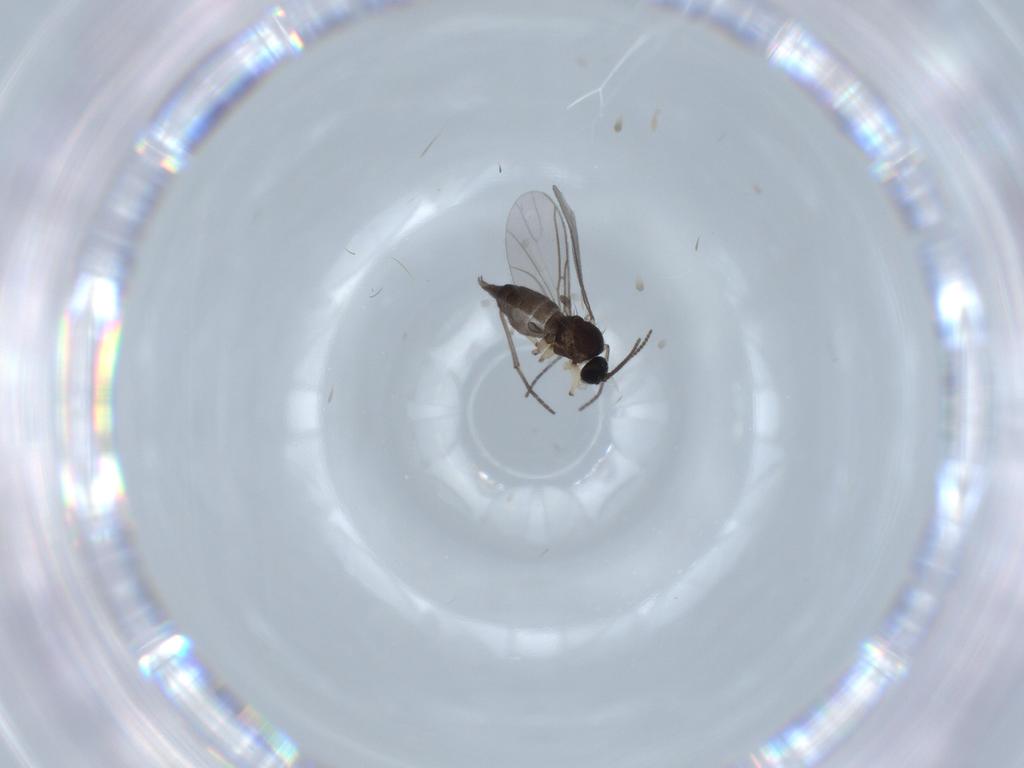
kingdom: Animalia
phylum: Arthropoda
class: Insecta
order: Diptera
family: Sciaridae
